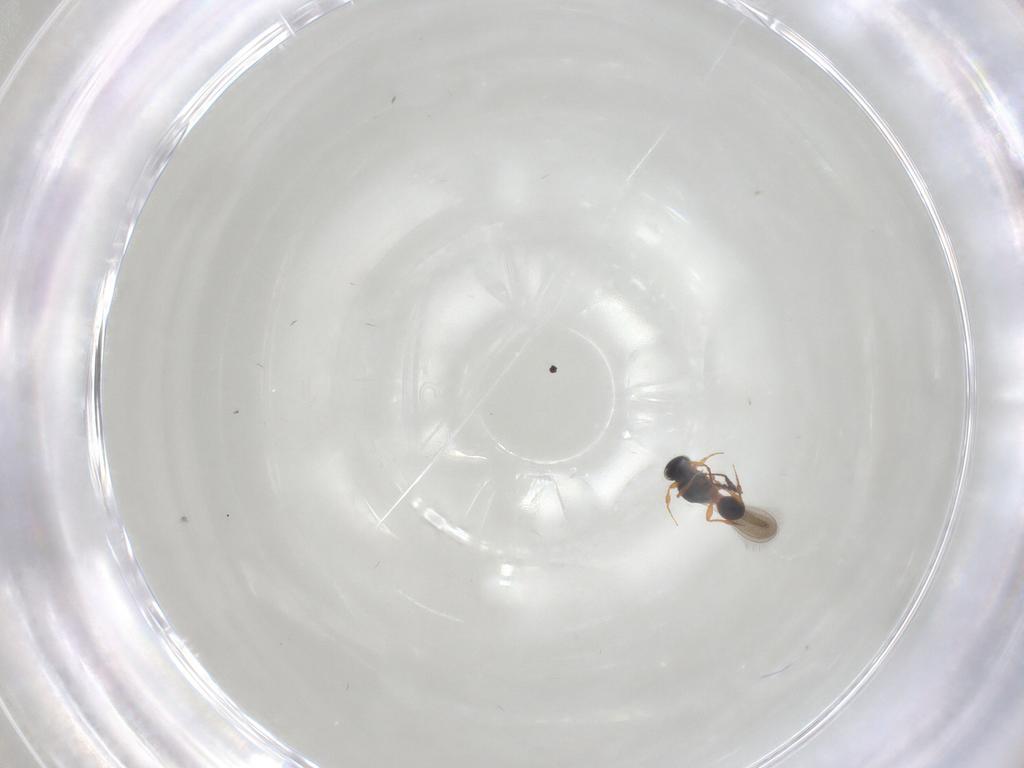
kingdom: Animalia
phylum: Arthropoda
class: Insecta
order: Hymenoptera
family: Platygastridae
